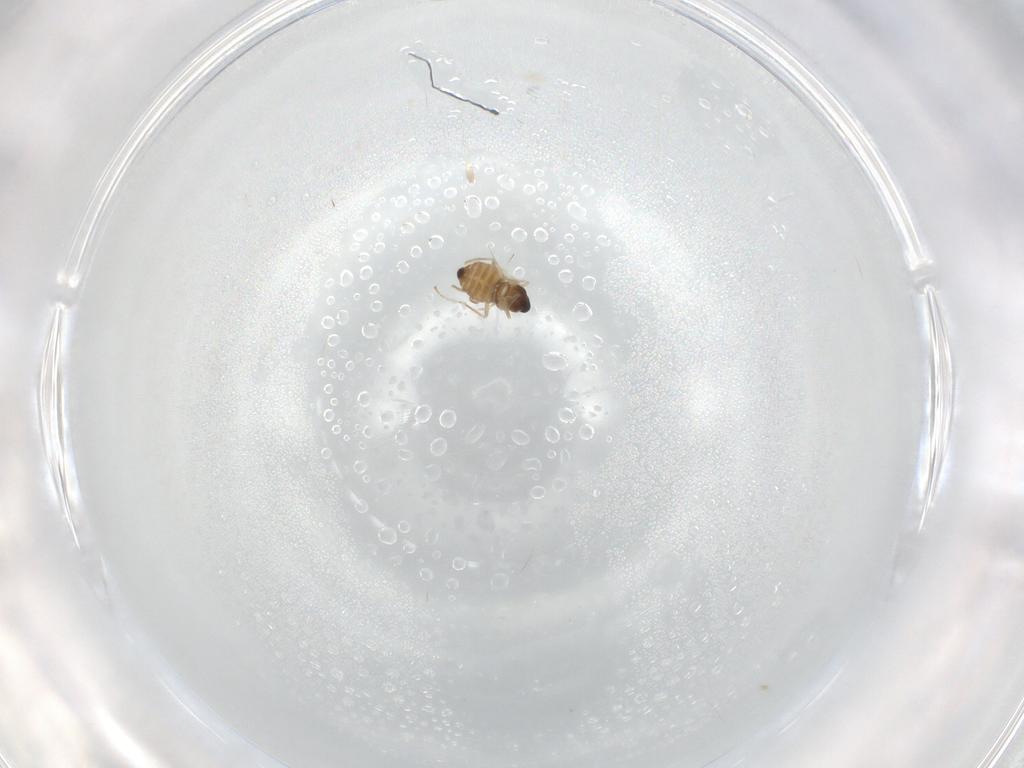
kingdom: Animalia
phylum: Arthropoda
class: Insecta
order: Diptera
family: Cecidomyiidae
